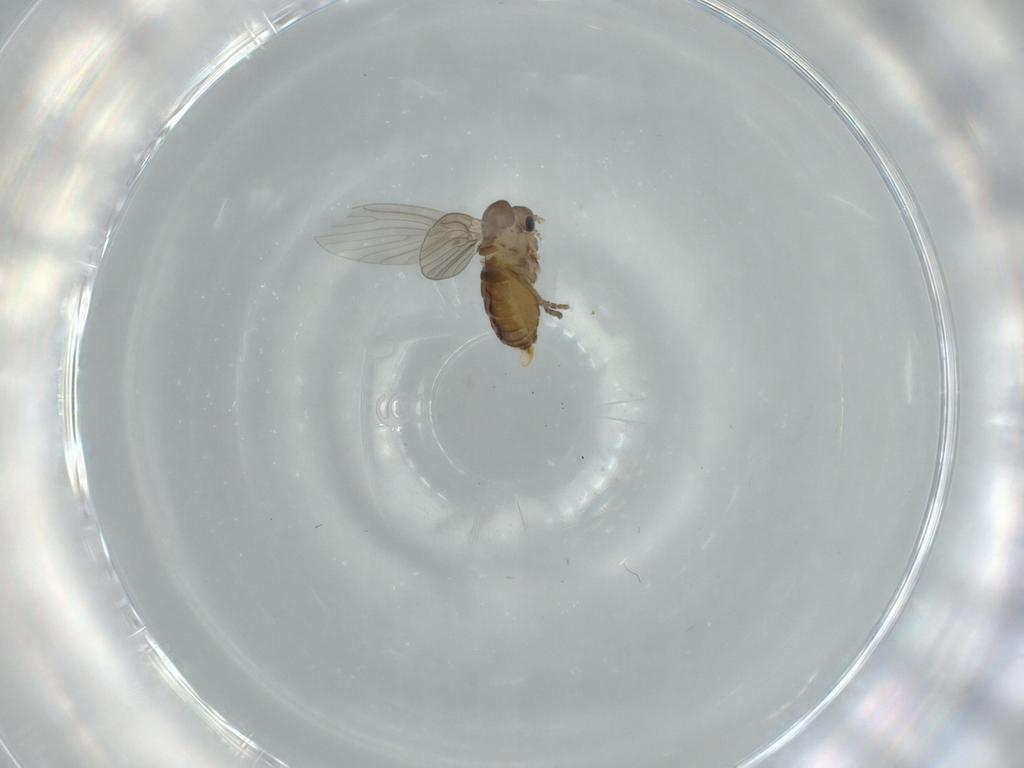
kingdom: Animalia
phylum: Arthropoda
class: Insecta
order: Diptera
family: Psychodidae
